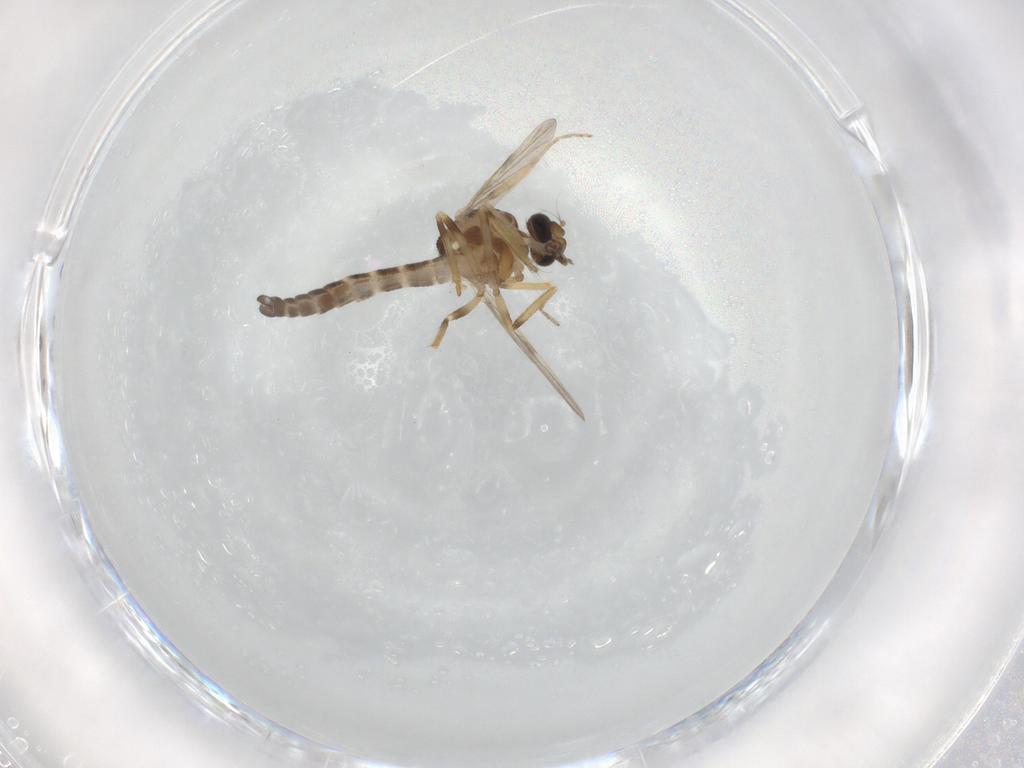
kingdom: Animalia
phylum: Arthropoda
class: Insecta
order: Diptera
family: Ceratopogonidae
